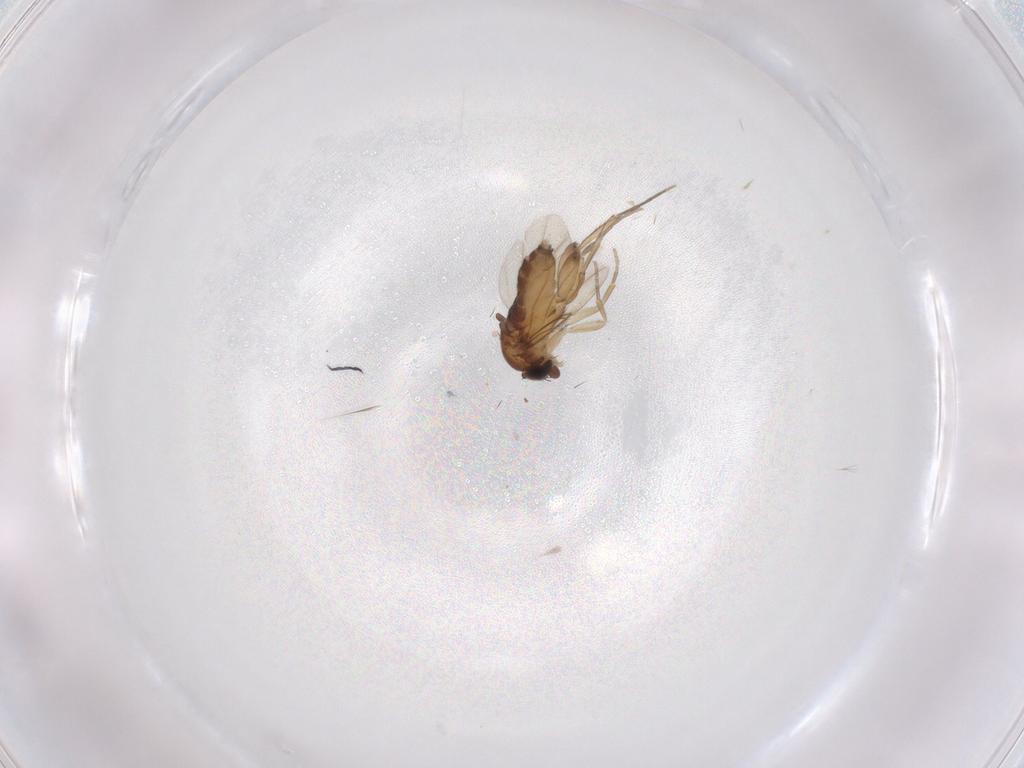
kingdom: Animalia
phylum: Arthropoda
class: Insecta
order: Diptera
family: Phoridae
